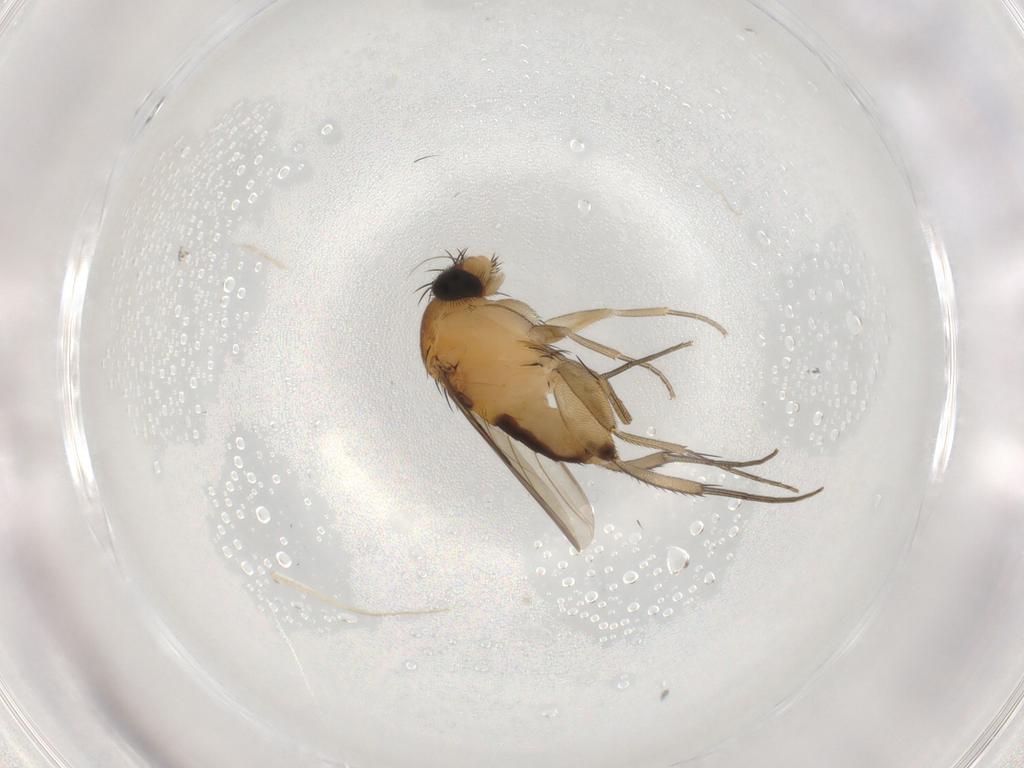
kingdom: Animalia
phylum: Arthropoda
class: Insecta
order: Diptera
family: Phoridae
